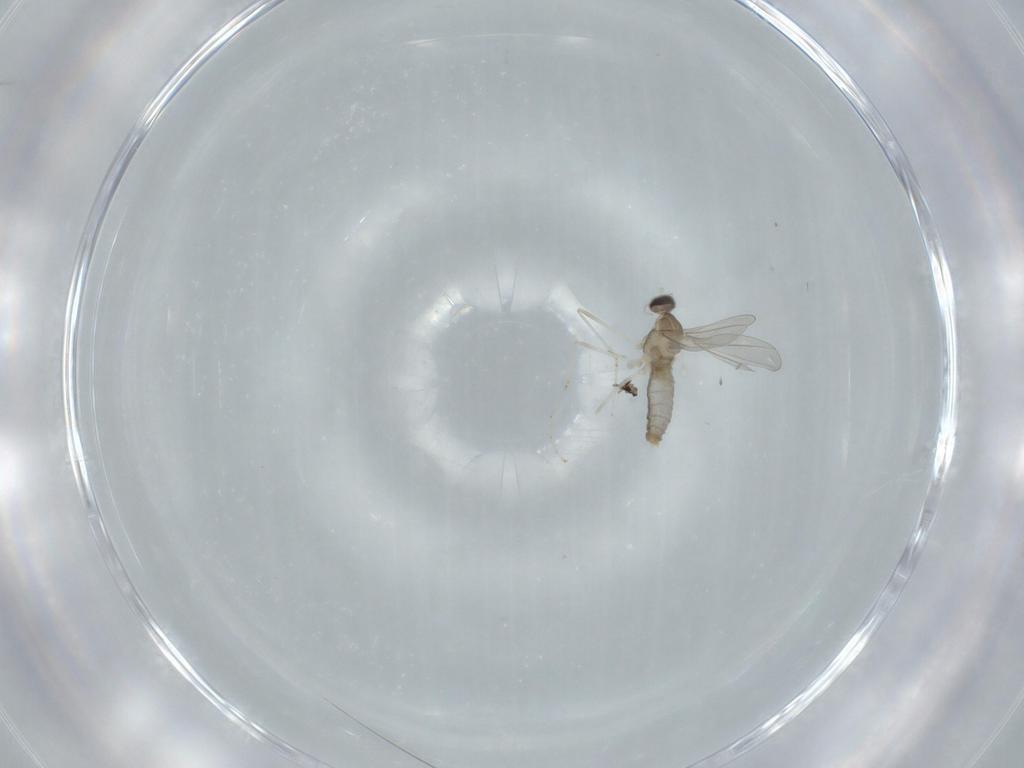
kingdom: Animalia
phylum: Arthropoda
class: Insecta
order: Diptera
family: Cecidomyiidae
